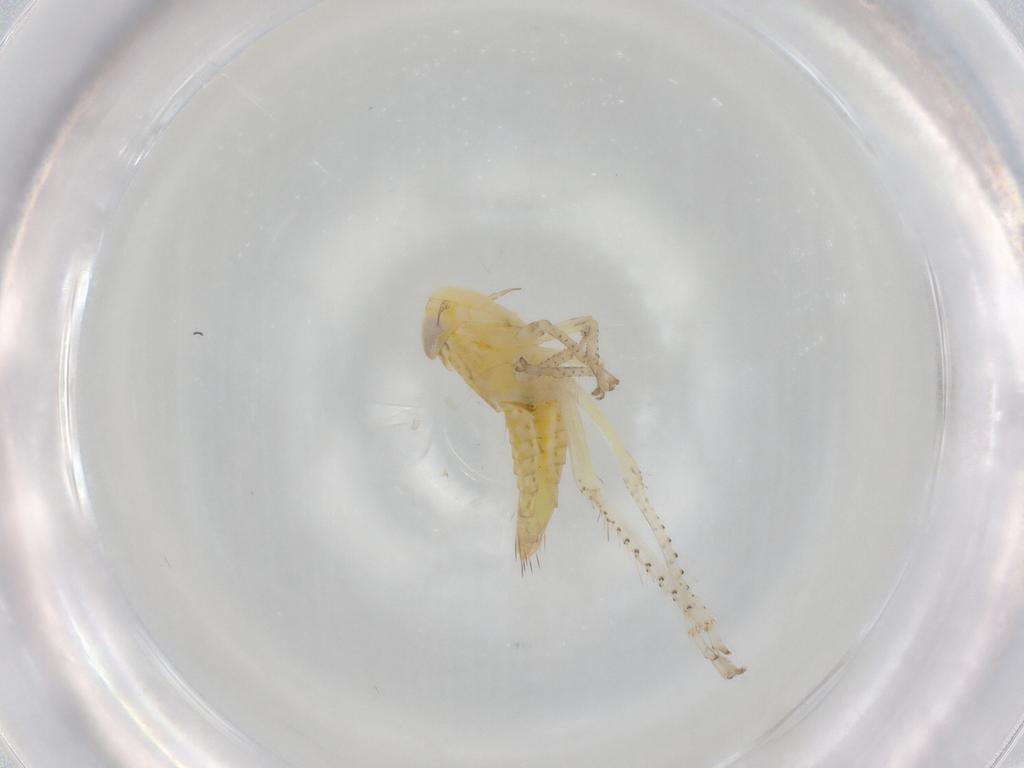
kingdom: Animalia
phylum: Arthropoda
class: Insecta
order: Hemiptera
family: Cicadellidae
